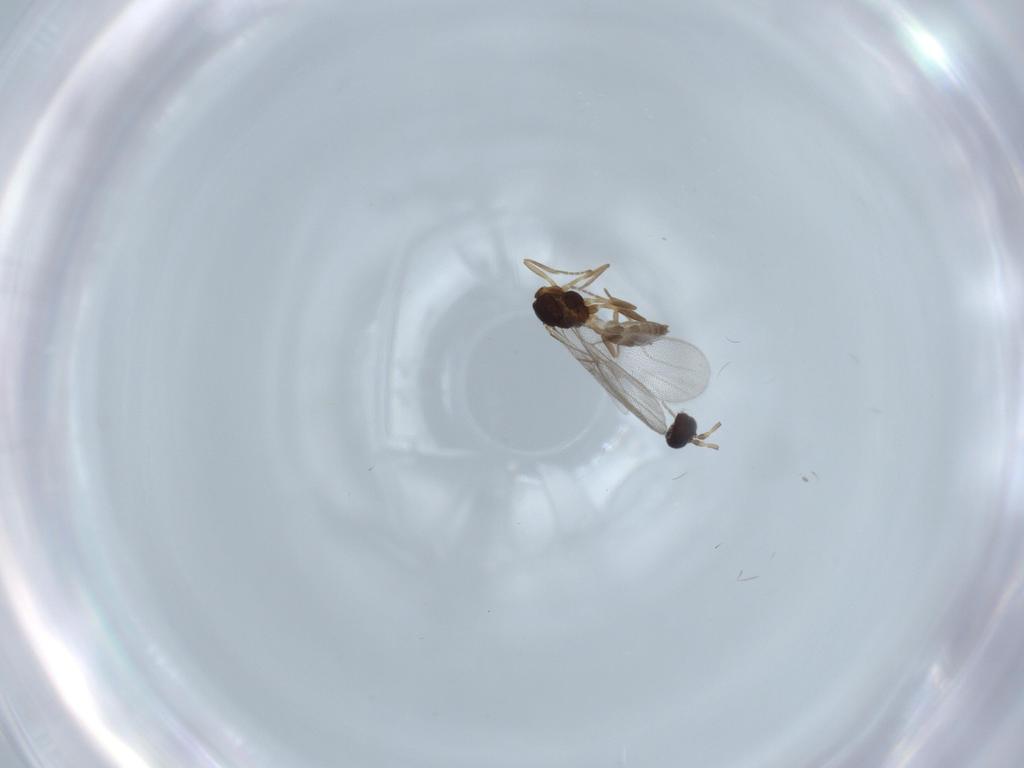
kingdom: Animalia
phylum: Arthropoda
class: Insecta
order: Hymenoptera
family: Braconidae
